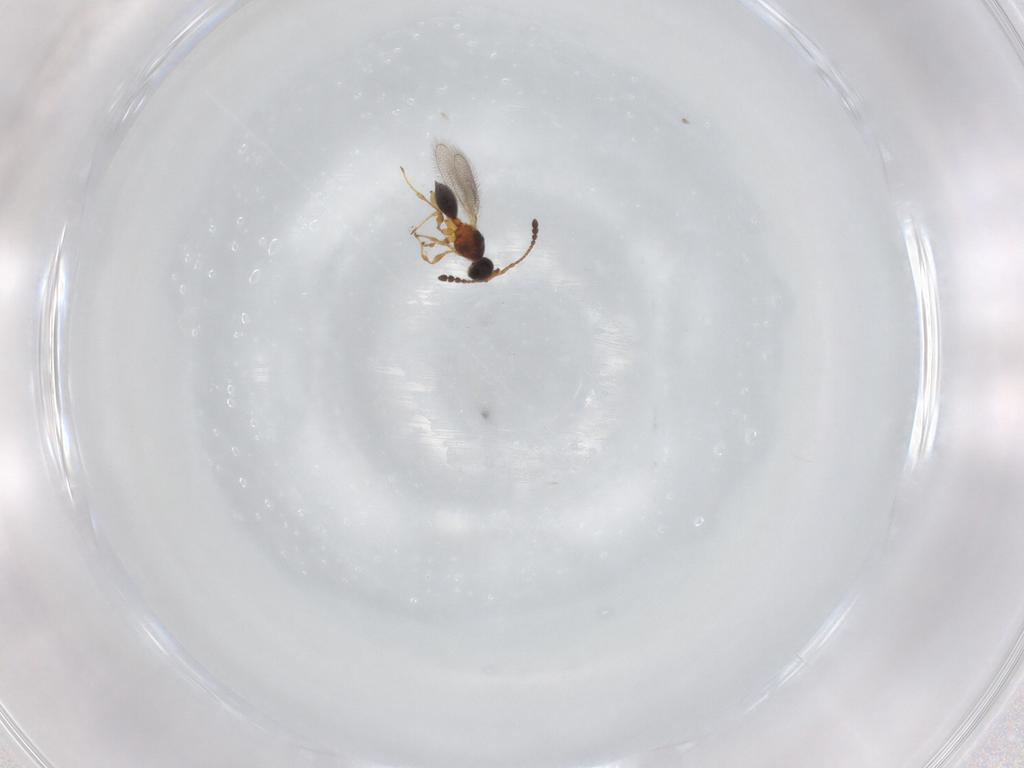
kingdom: Animalia
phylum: Arthropoda
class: Insecta
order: Hymenoptera
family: Diapriidae
